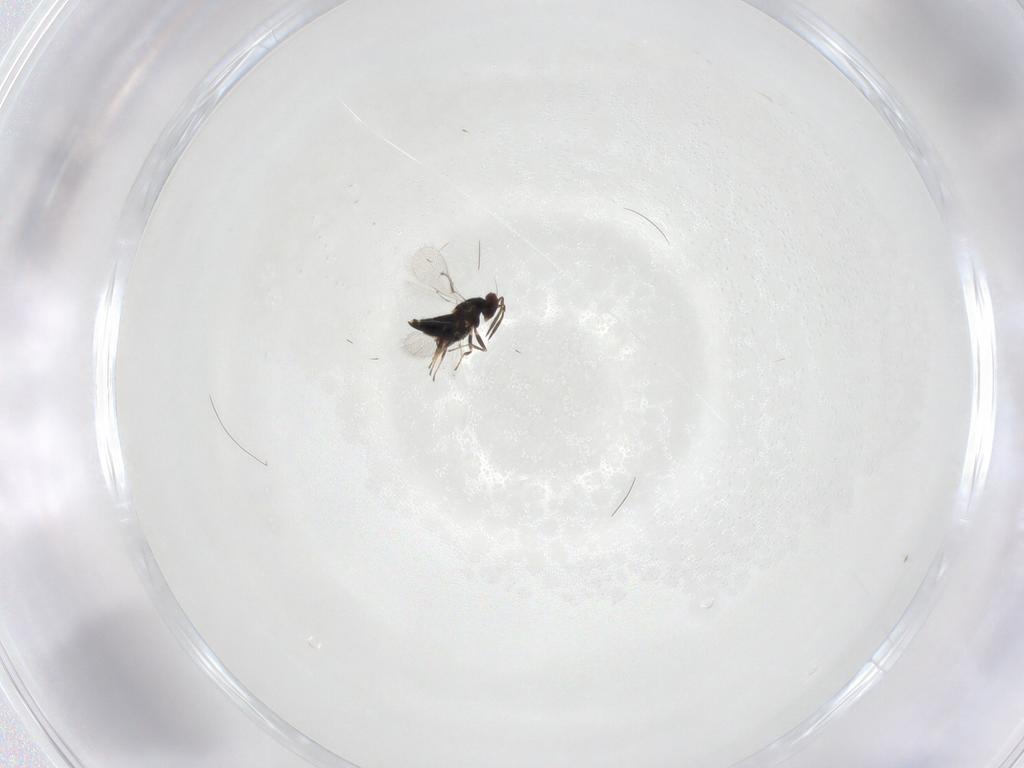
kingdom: Animalia
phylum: Arthropoda
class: Insecta
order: Hymenoptera
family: Trichogrammatidae
